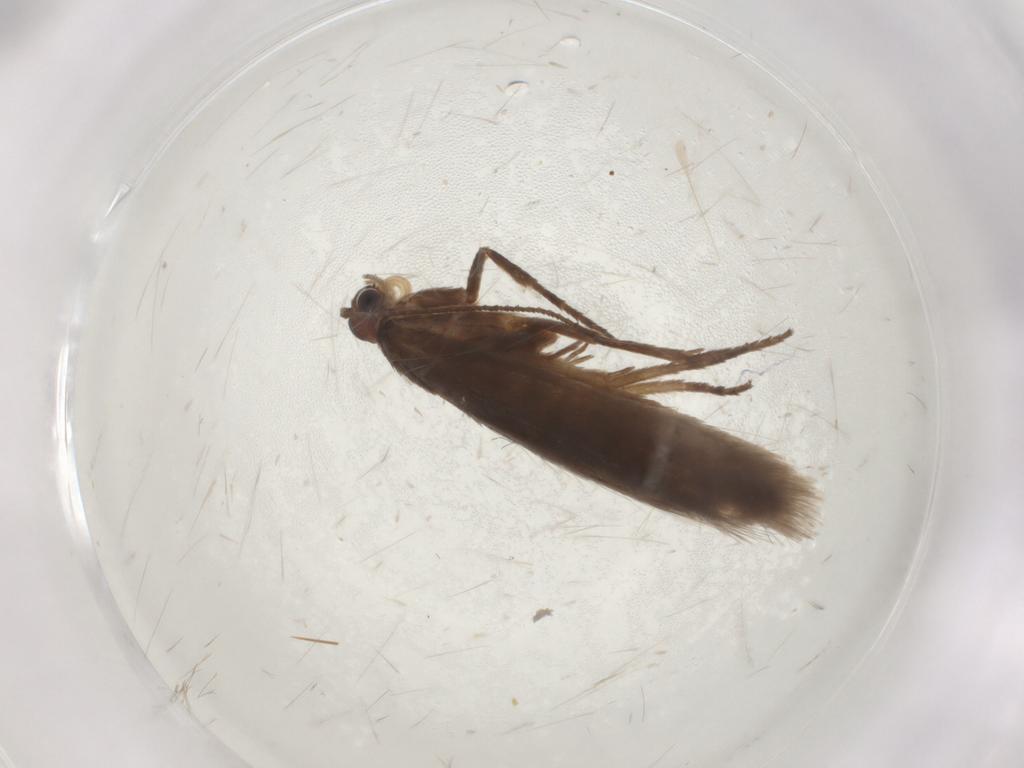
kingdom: Animalia
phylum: Arthropoda
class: Insecta
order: Lepidoptera
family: Limacodidae
